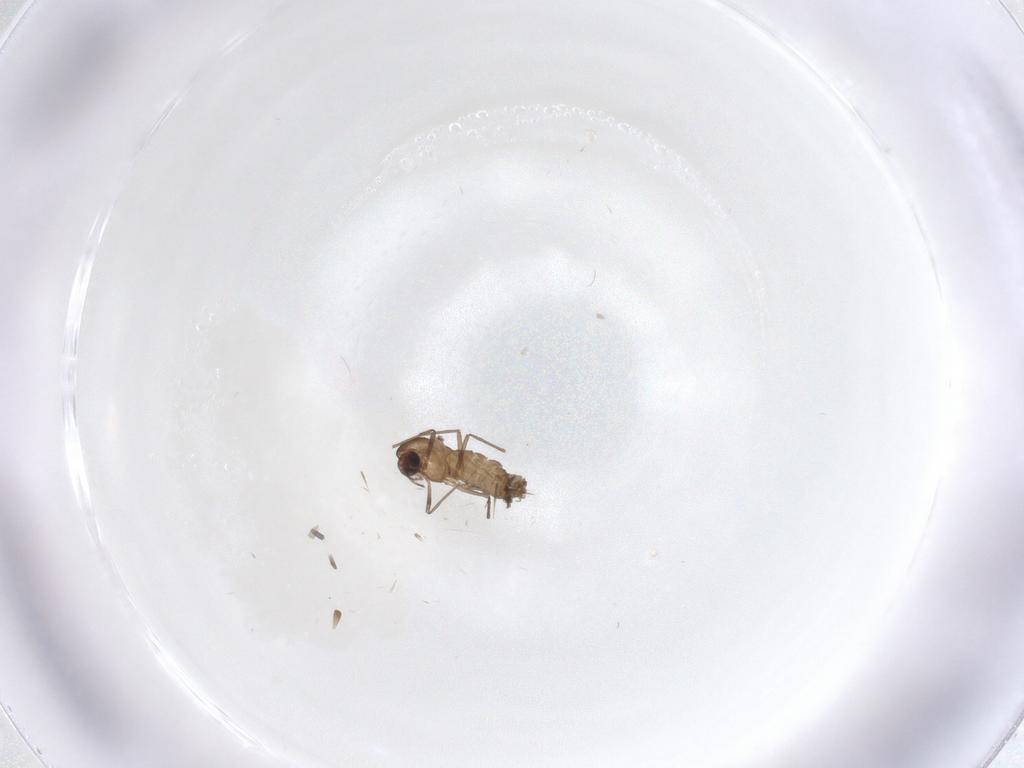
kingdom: Animalia
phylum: Arthropoda
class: Insecta
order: Diptera
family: Chironomidae
